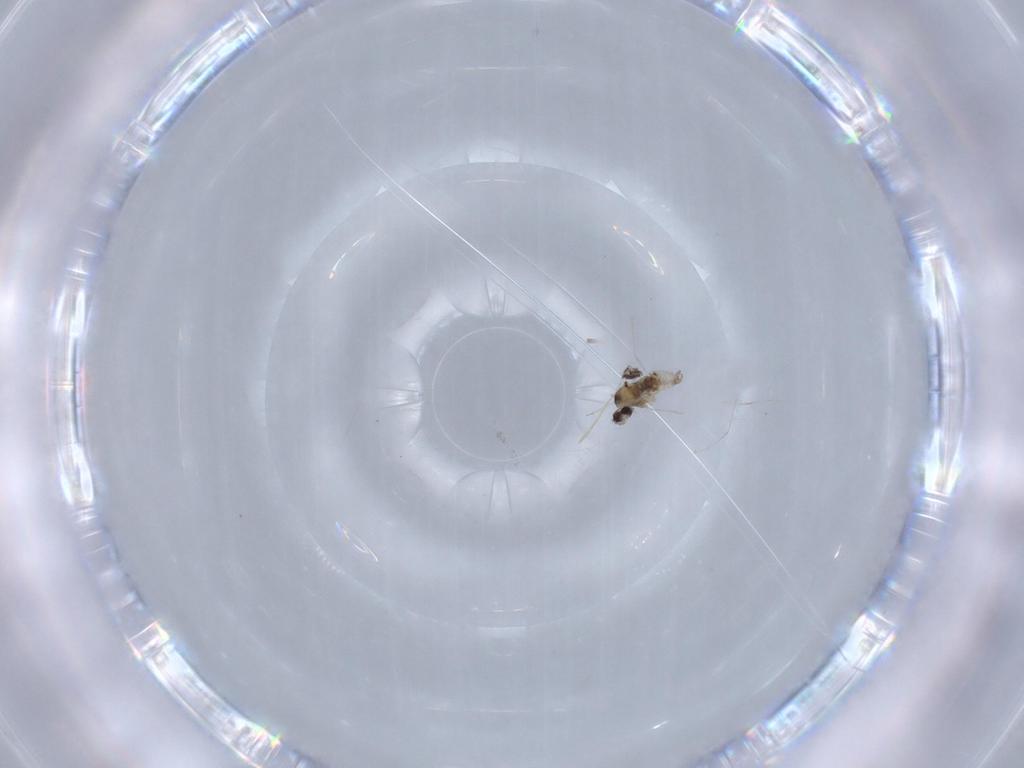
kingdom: Animalia
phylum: Arthropoda
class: Insecta
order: Diptera
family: Cecidomyiidae
